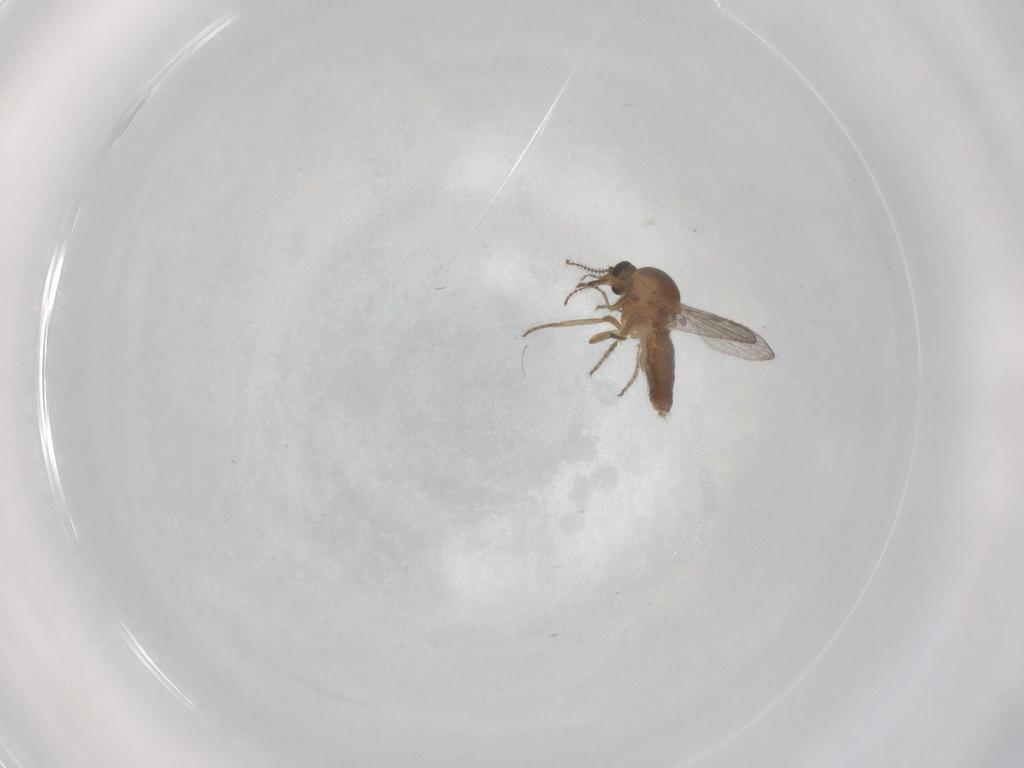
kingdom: Animalia
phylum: Arthropoda
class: Insecta
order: Diptera
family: Ceratopogonidae
